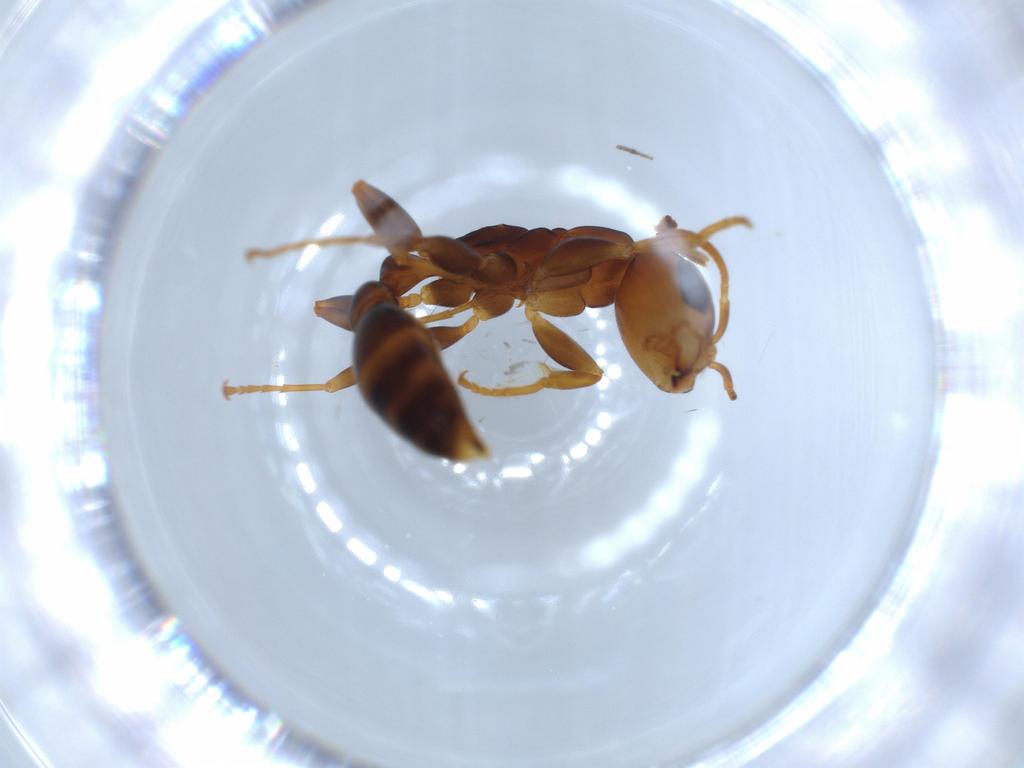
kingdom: Animalia
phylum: Arthropoda
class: Insecta
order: Hymenoptera
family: Formicidae
